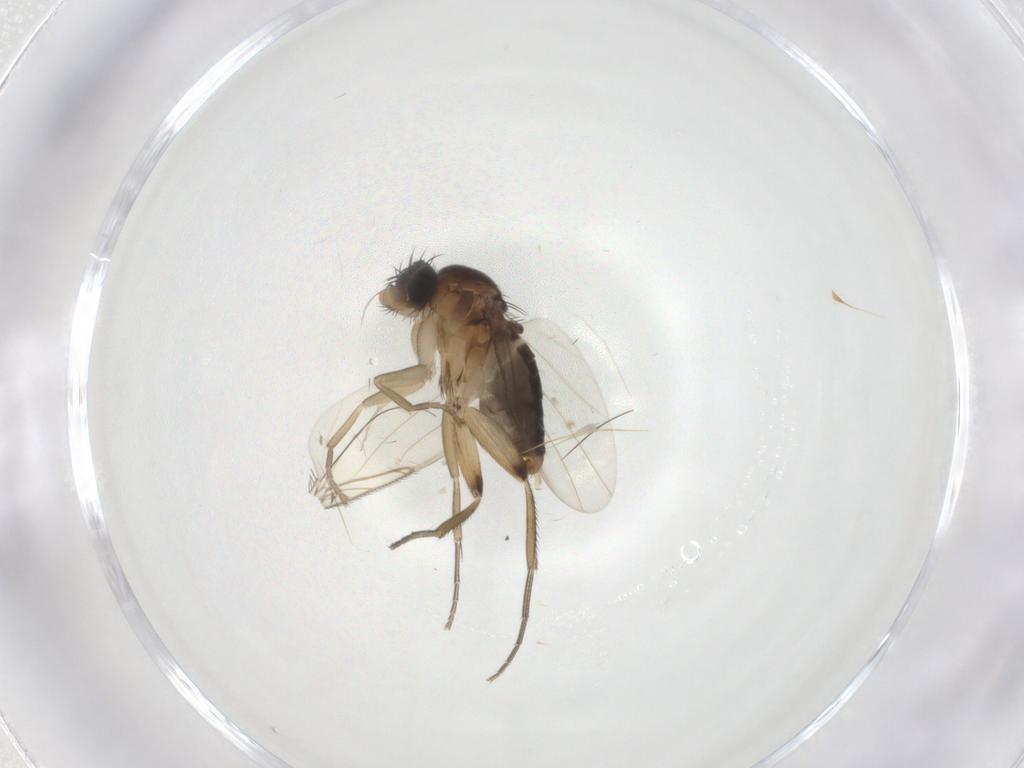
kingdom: Animalia
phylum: Arthropoda
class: Insecta
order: Diptera
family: Phoridae
